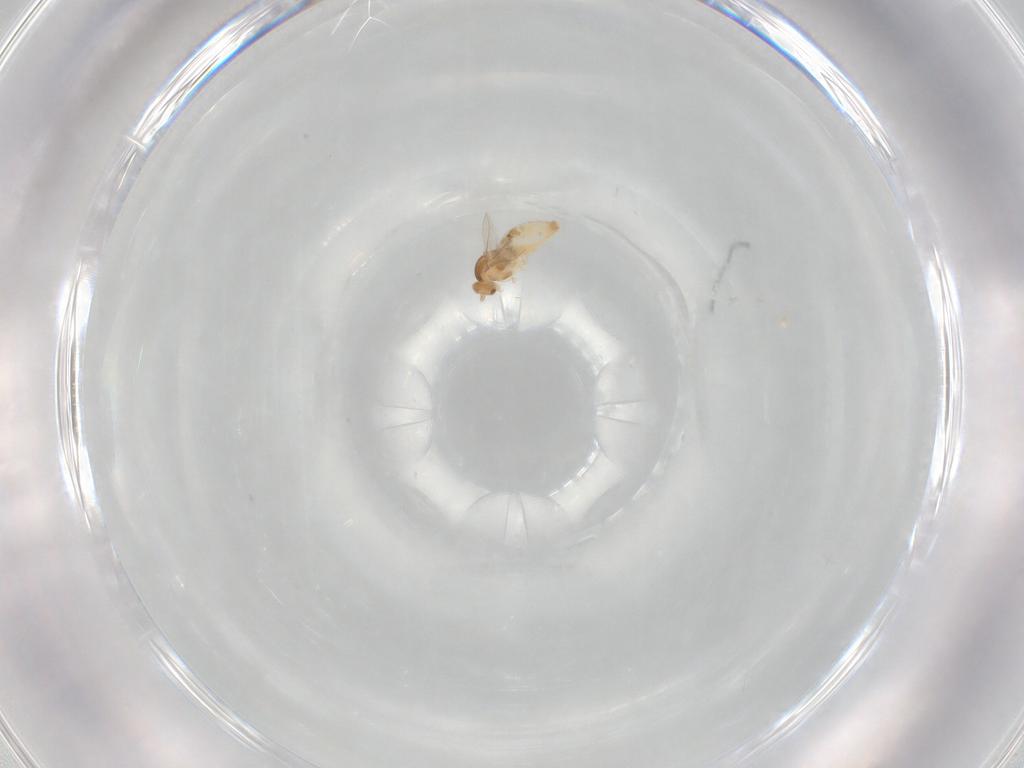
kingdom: Animalia
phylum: Arthropoda
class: Insecta
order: Diptera
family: Cecidomyiidae
